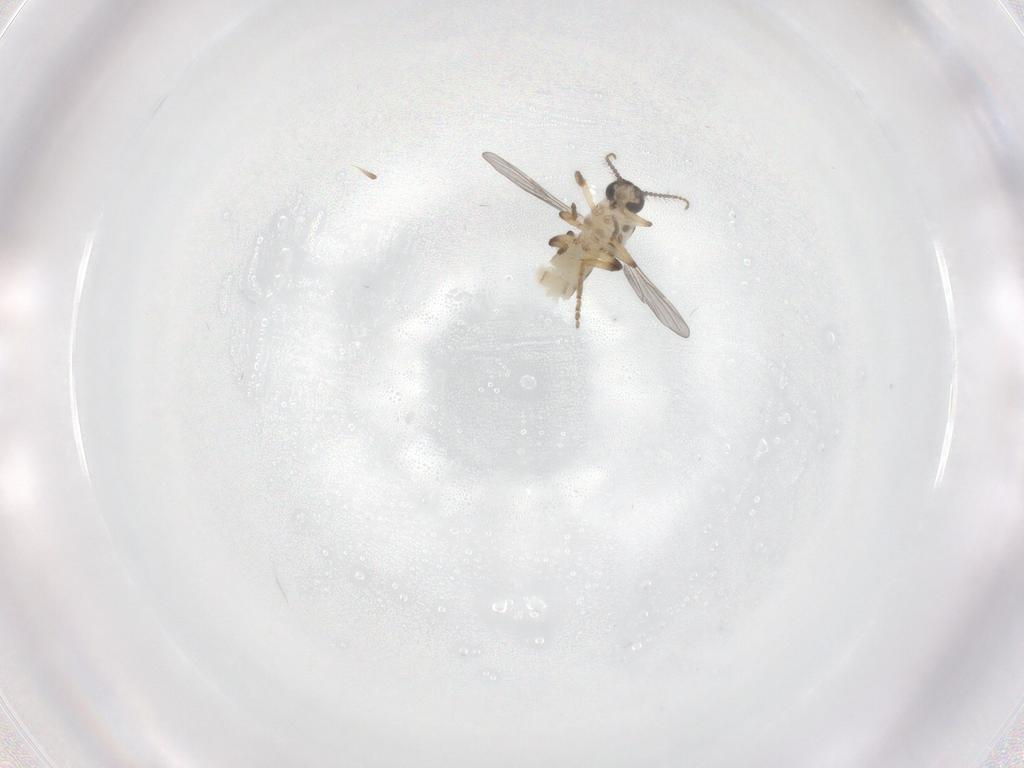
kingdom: Animalia
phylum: Arthropoda
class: Insecta
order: Diptera
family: Ceratopogonidae
